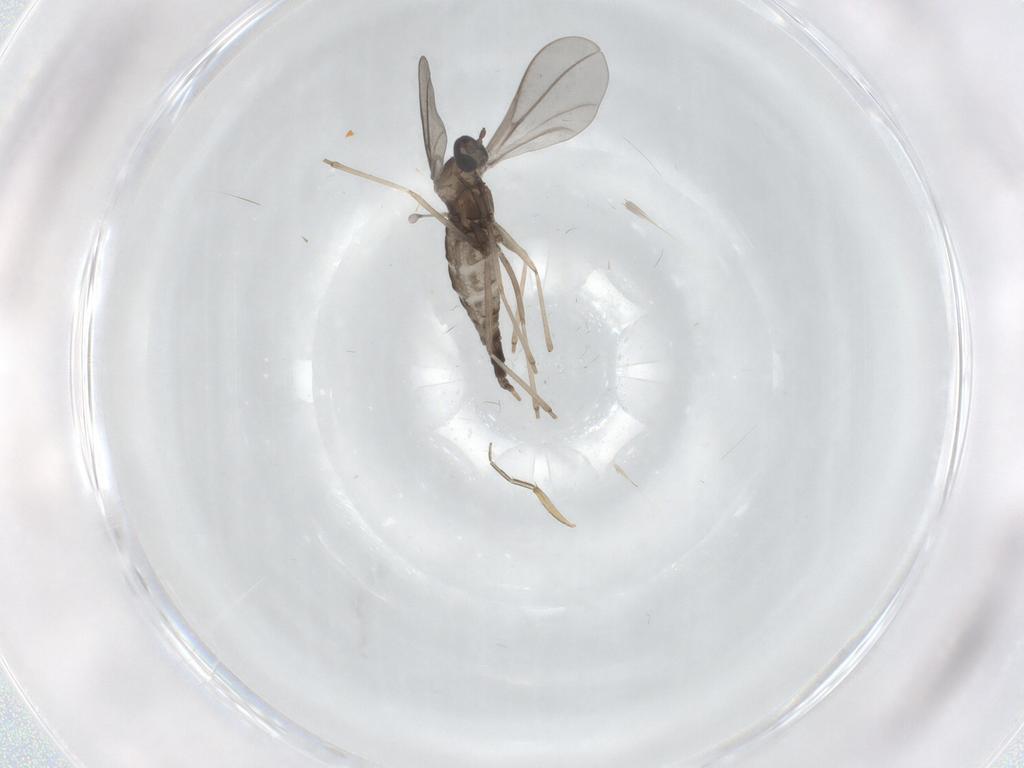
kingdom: Animalia
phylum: Arthropoda
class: Insecta
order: Diptera
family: Phoridae
